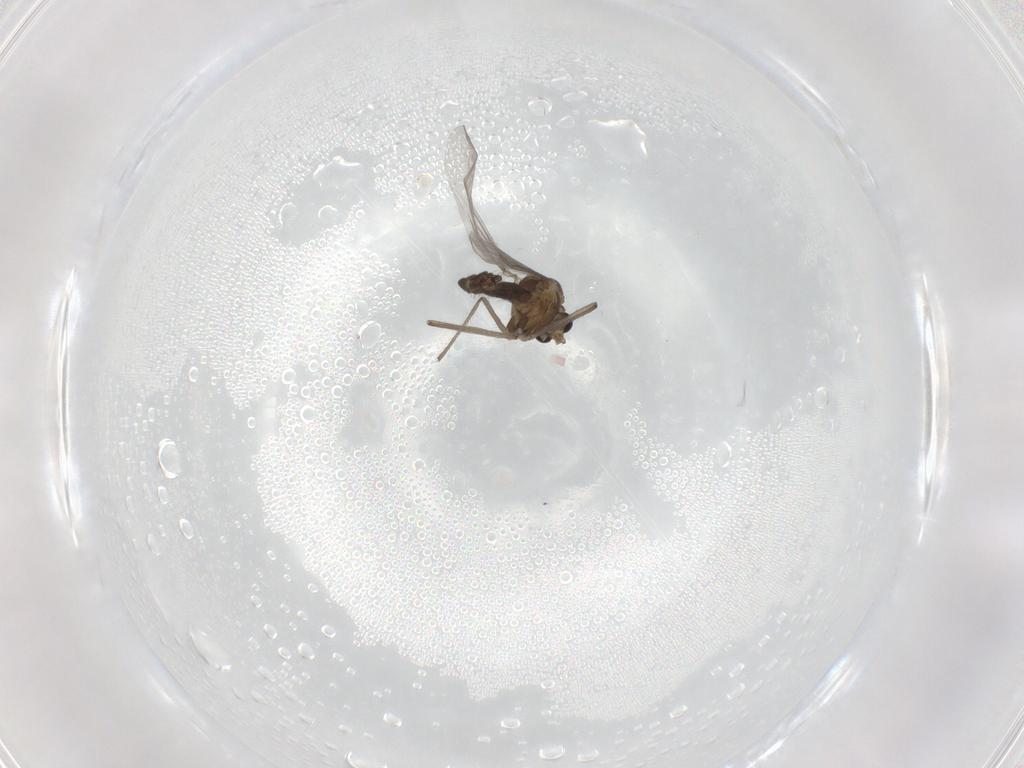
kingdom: Animalia
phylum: Arthropoda
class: Insecta
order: Diptera
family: Chironomidae
